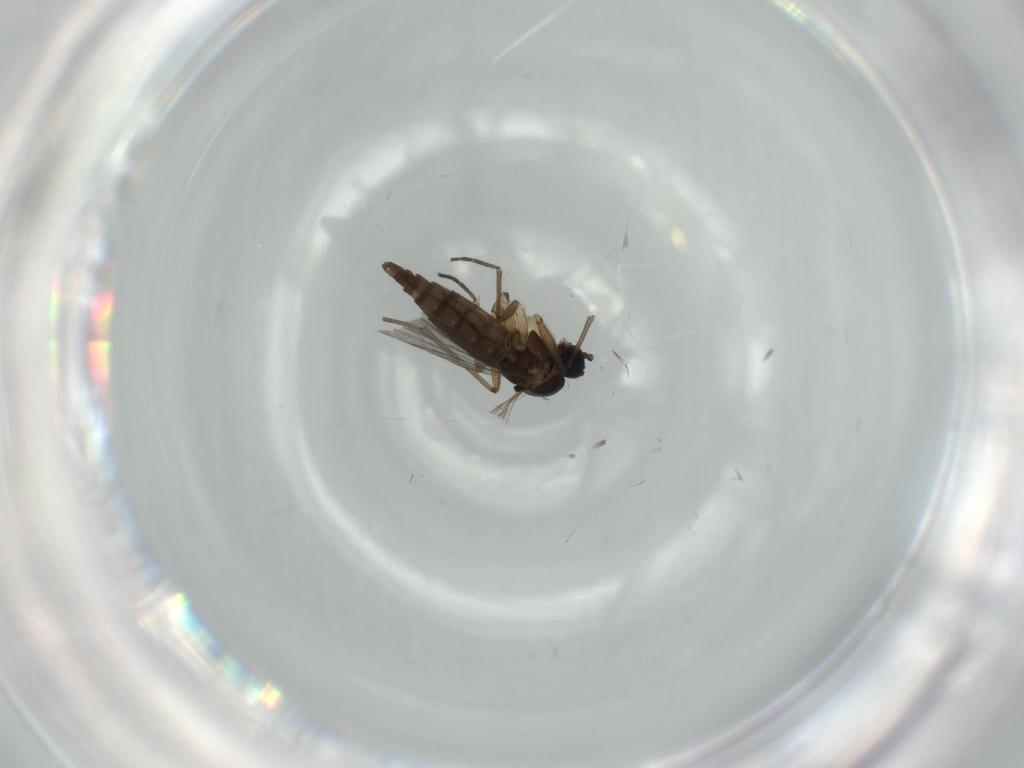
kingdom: Animalia
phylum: Arthropoda
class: Insecta
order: Diptera
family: Sciaridae
